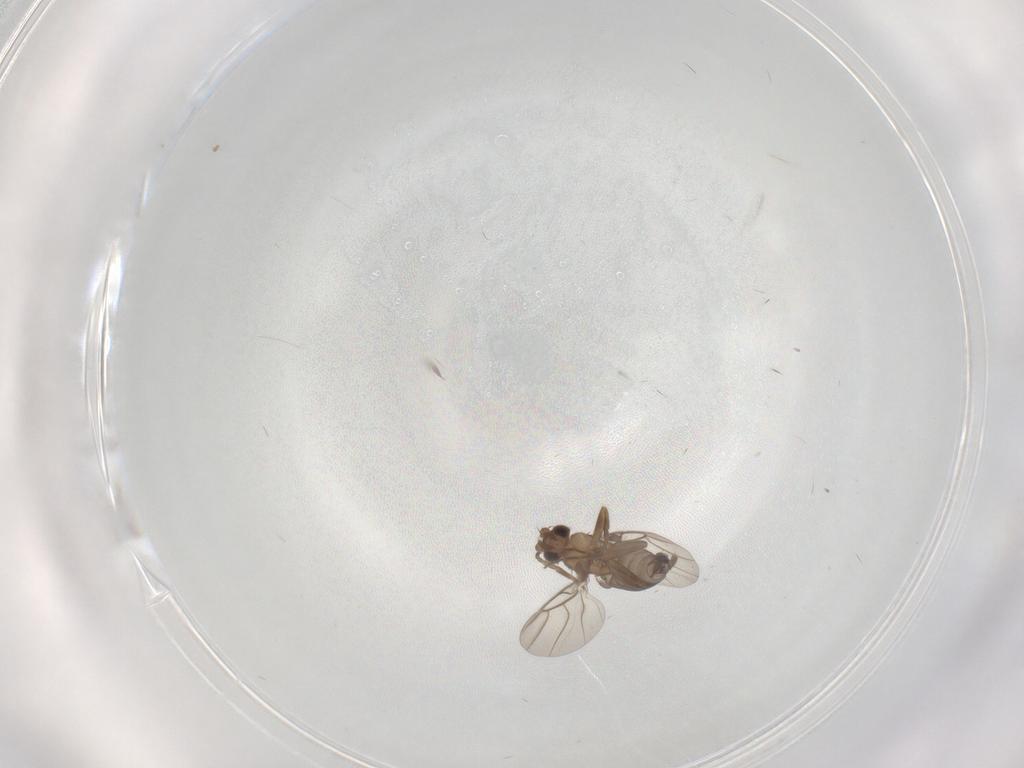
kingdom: Animalia
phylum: Arthropoda
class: Insecta
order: Diptera
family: Phoridae
